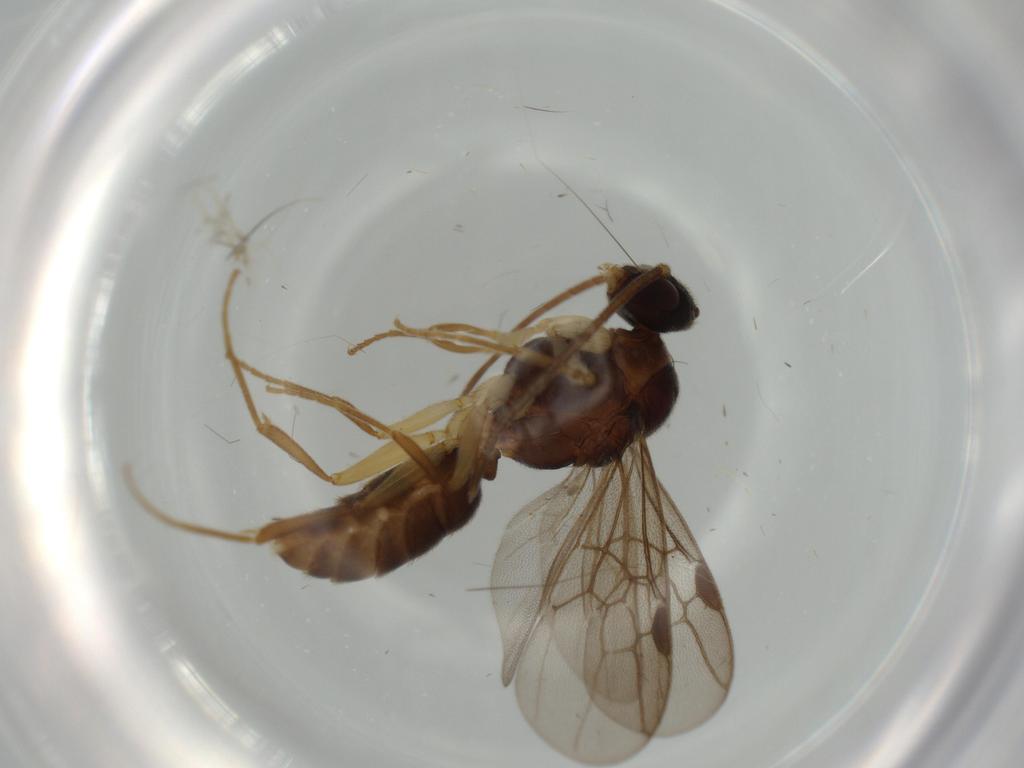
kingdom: Animalia
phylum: Arthropoda
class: Insecta
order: Hymenoptera
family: Formicidae
